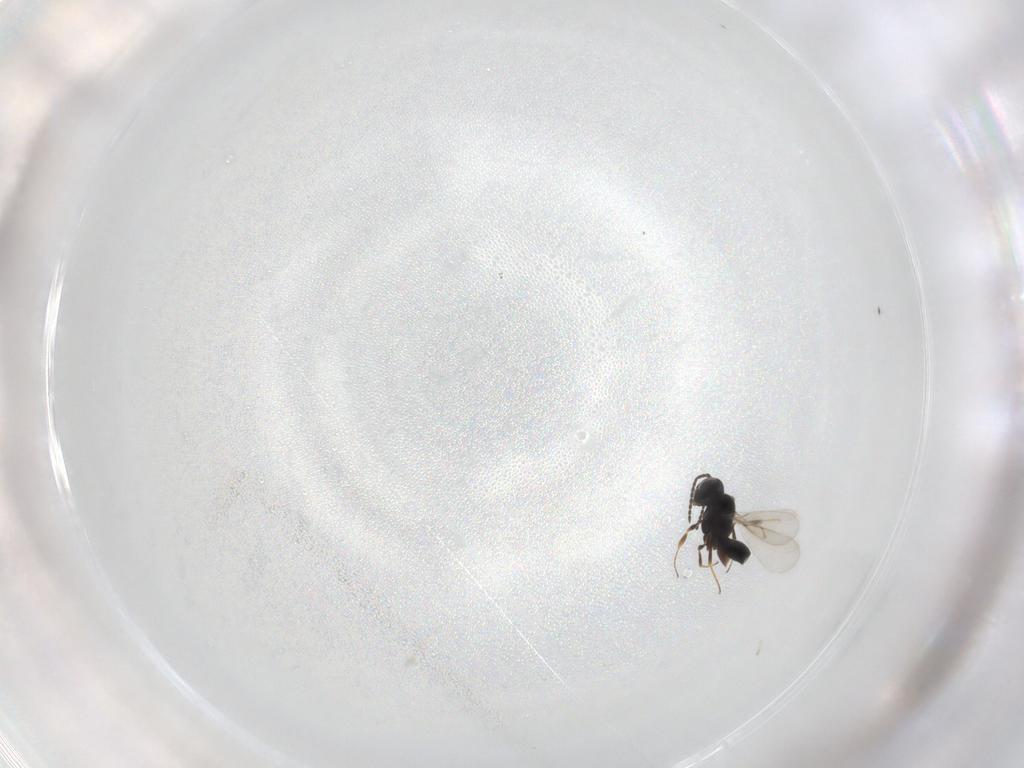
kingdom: Animalia
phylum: Arthropoda
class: Insecta
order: Hymenoptera
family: Scelionidae
